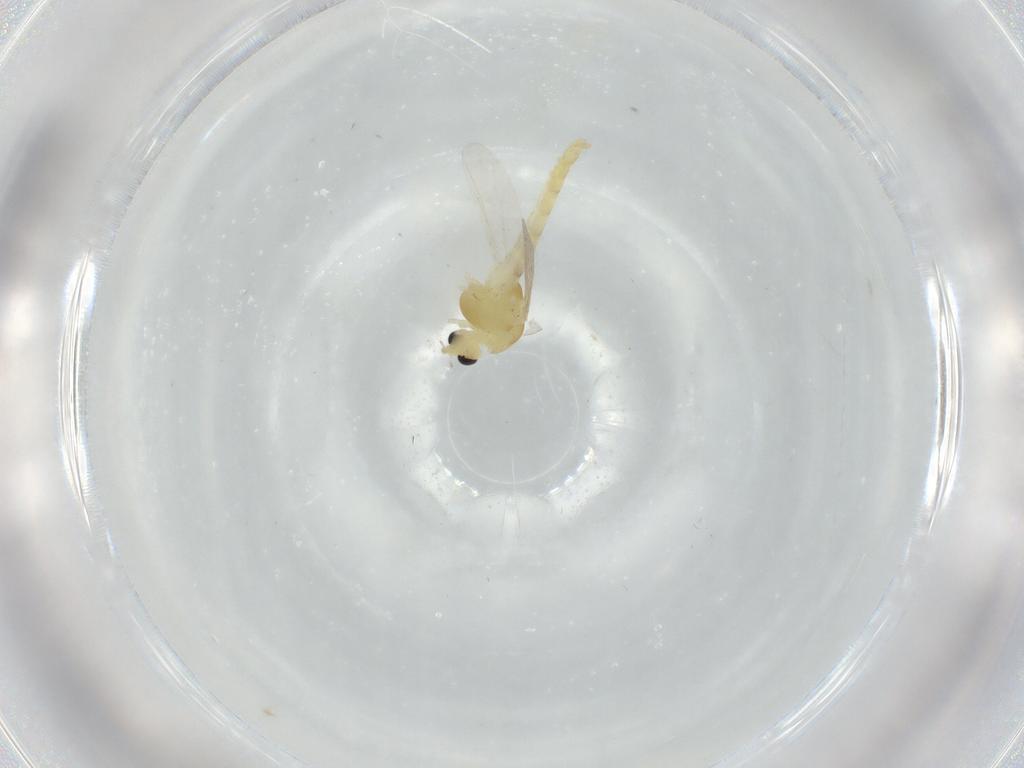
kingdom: Animalia
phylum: Arthropoda
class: Insecta
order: Diptera
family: Chironomidae
